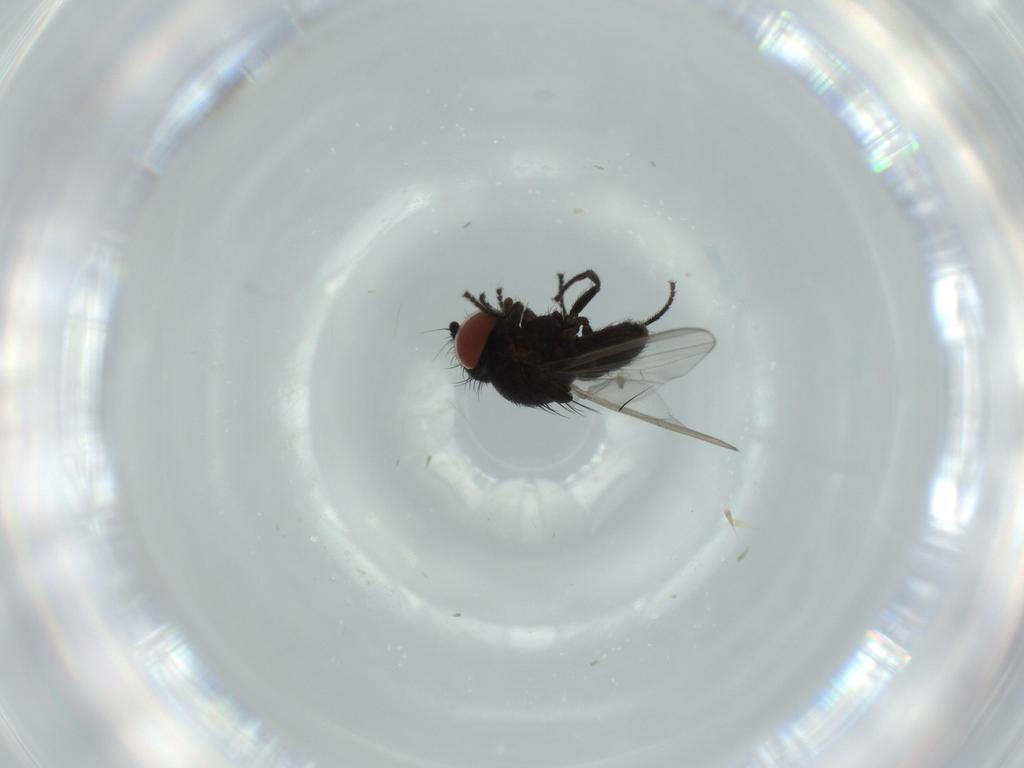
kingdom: Animalia
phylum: Arthropoda
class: Insecta
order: Diptera
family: Milichiidae
